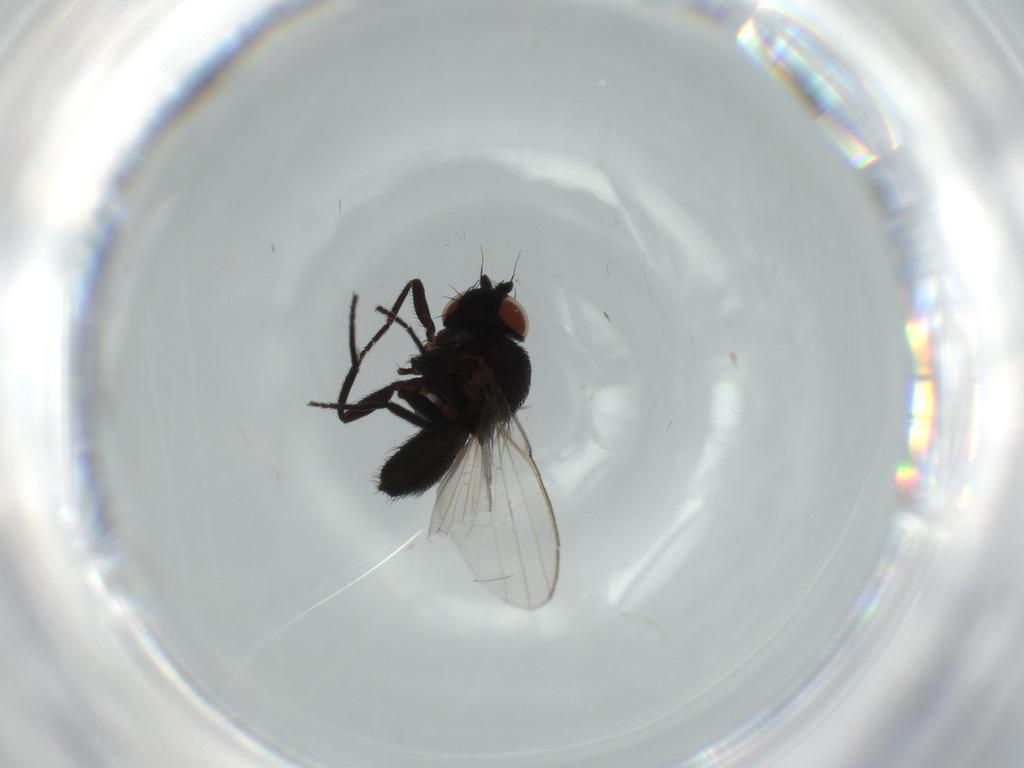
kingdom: Animalia
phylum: Arthropoda
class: Insecta
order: Diptera
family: Milichiidae
